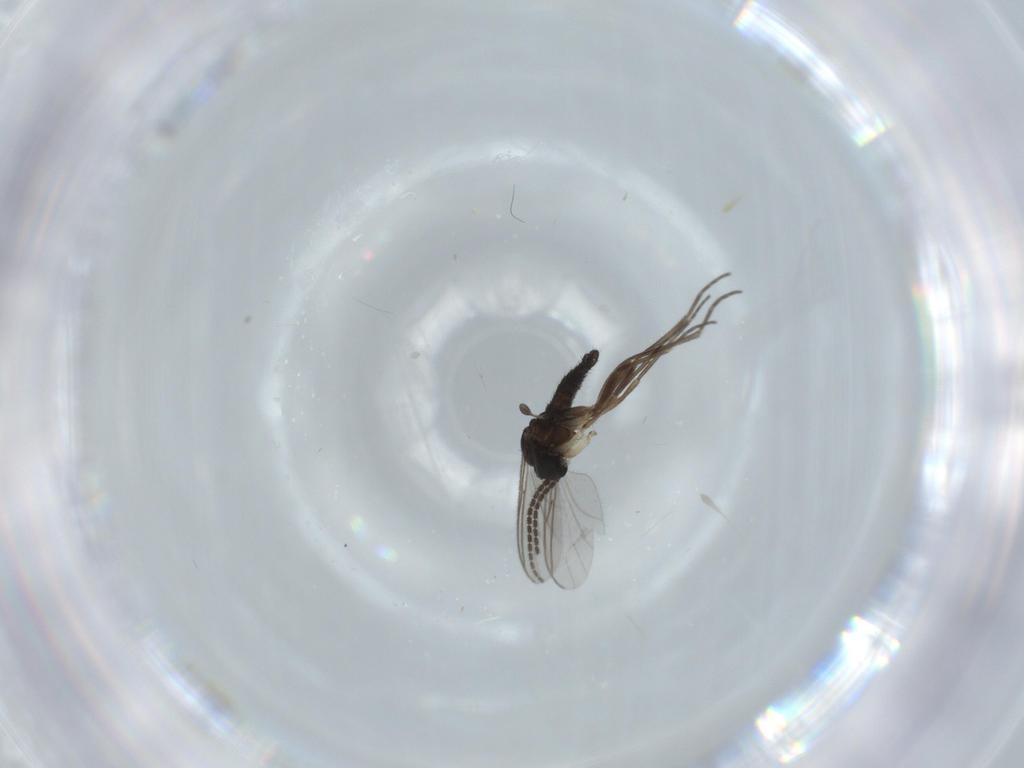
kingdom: Animalia
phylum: Arthropoda
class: Insecta
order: Diptera
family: Sciaridae
